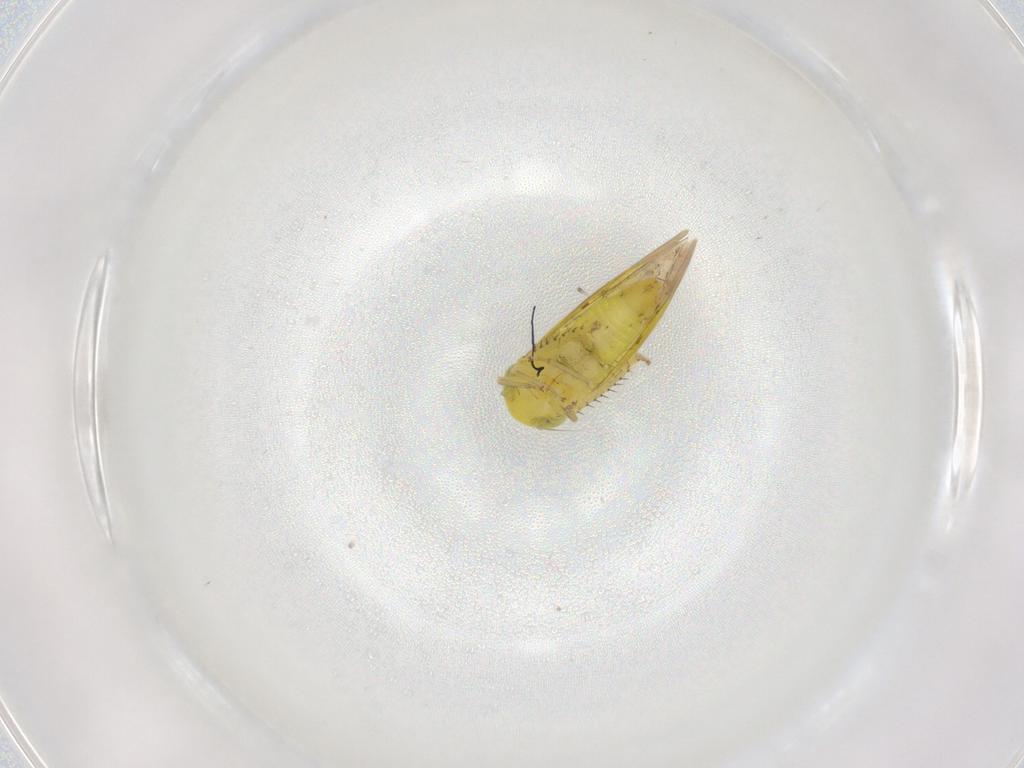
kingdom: Animalia
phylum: Arthropoda
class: Insecta
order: Hemiptera
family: Cicadellidae
